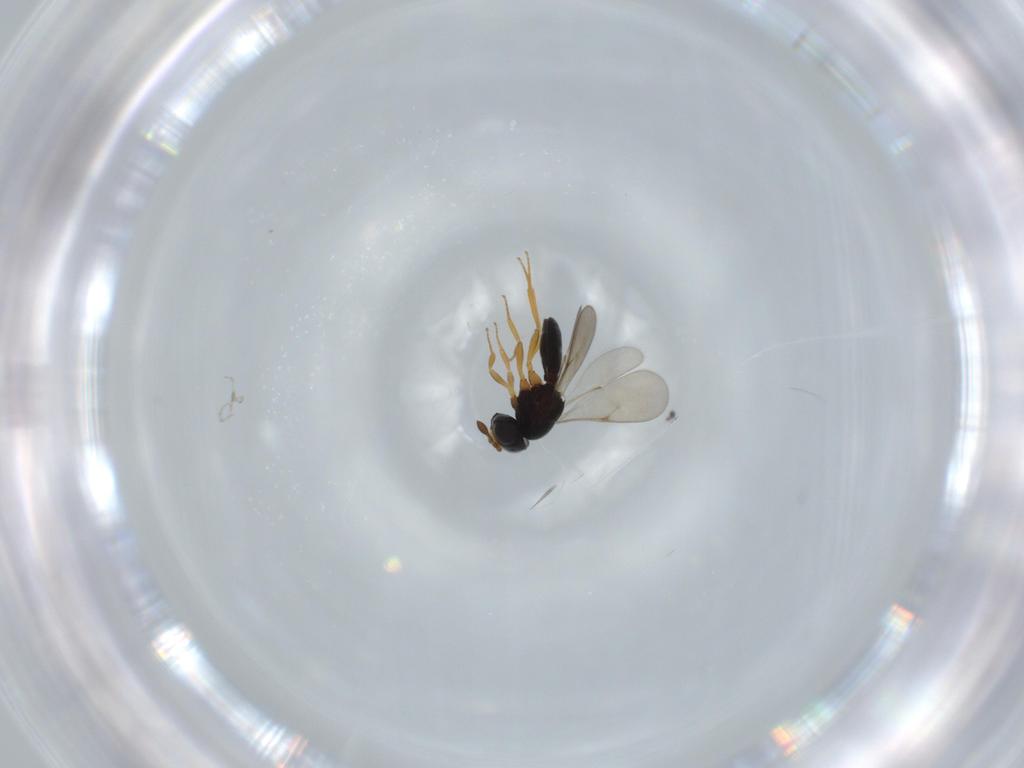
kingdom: Animalia
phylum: Arthropoda
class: Insecta
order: Hymenoptera
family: Scelionidae
